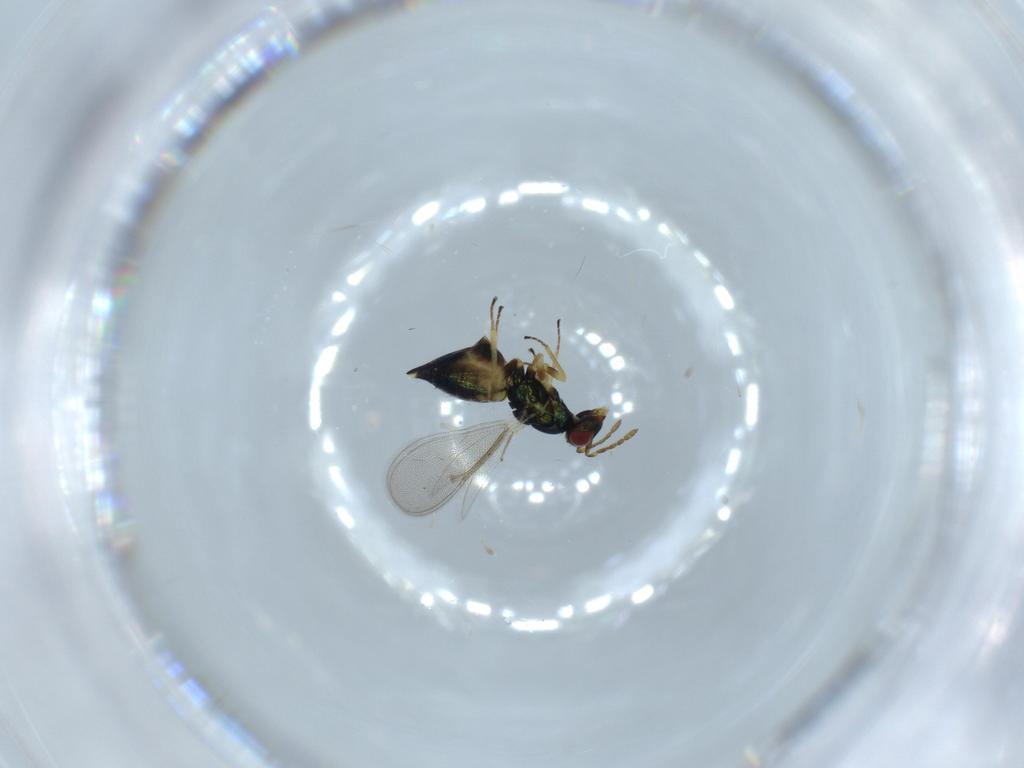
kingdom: Animalia
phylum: Arthropoda
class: Insecta
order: Hymenoptera
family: Eulophidae
